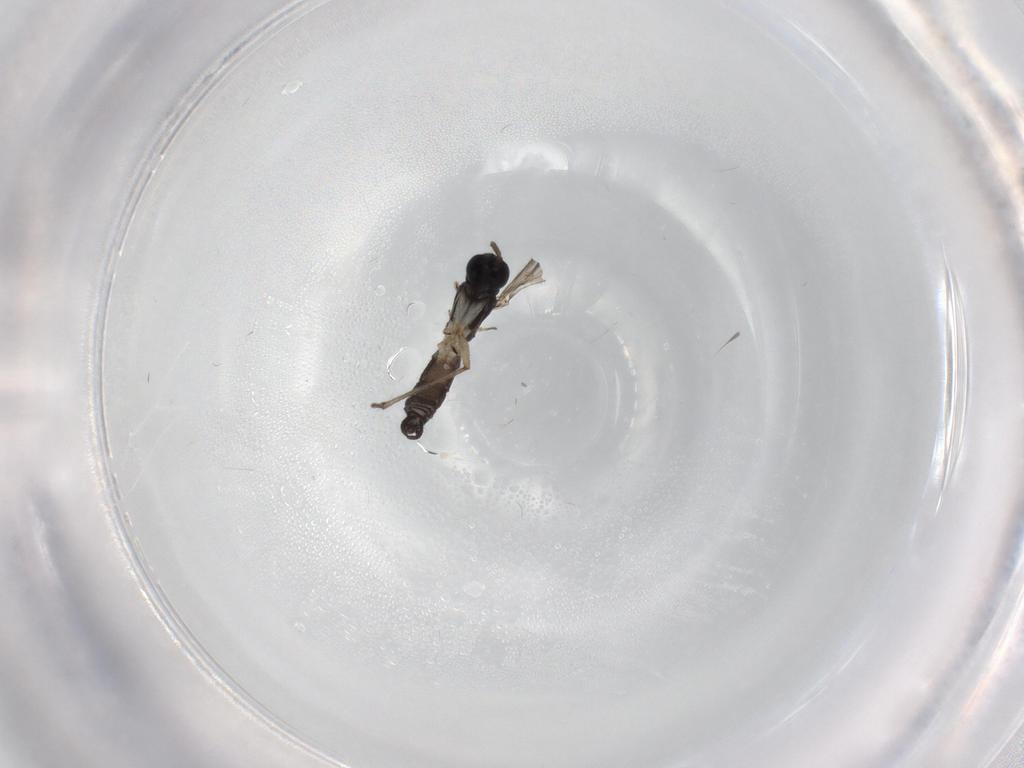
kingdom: Animalia
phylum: Arthropoda
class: Insecta
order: Diptera
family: Sciaridae
